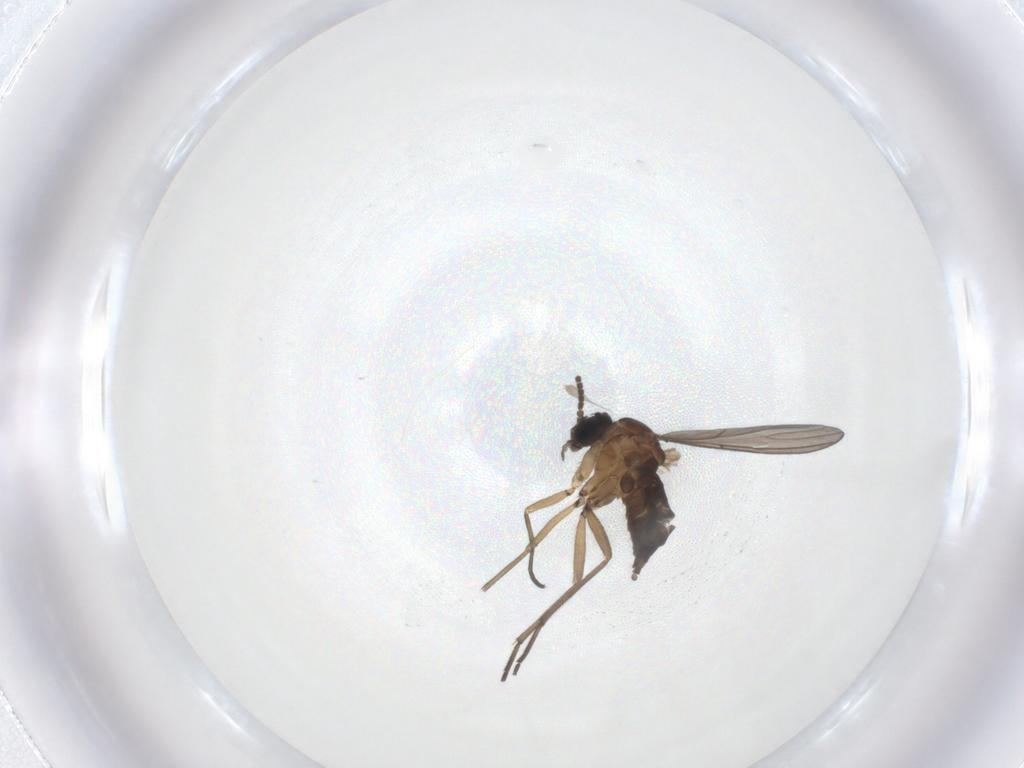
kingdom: Animalia
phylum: Arthropoda
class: Insecta
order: Diptera
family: Sciaridae
